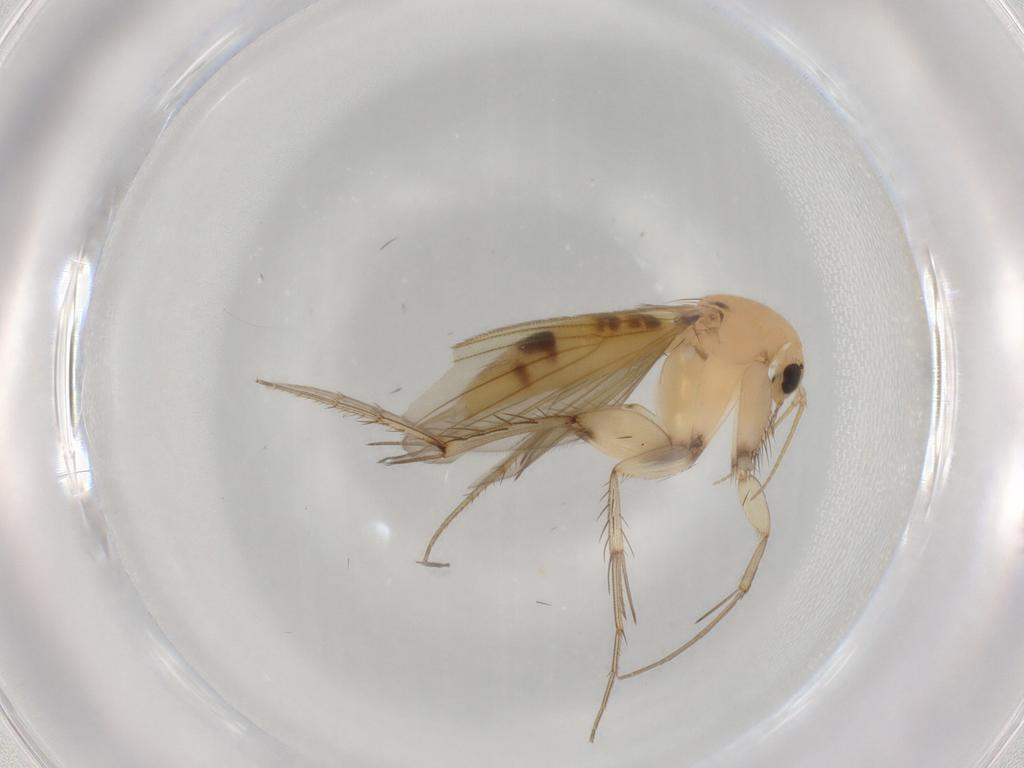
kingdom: Animalia
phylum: Arthropoda
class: Insecta
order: Diptera
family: Mycetophilidae
